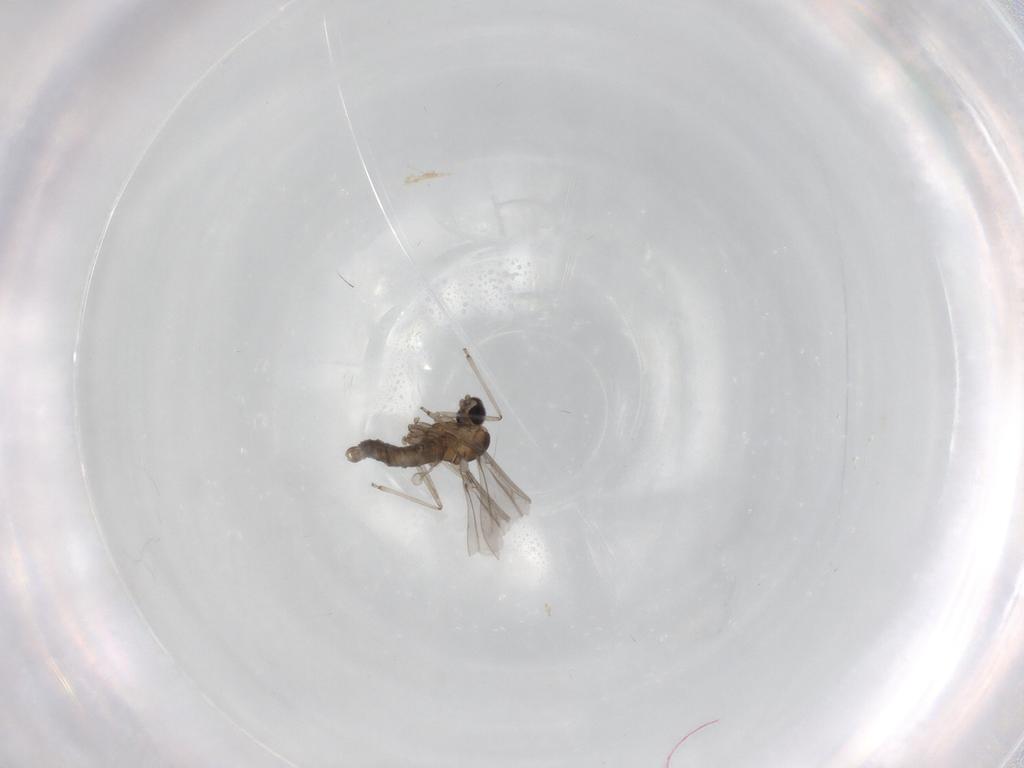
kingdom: Animalia
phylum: Arthropoda
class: Insecta
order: Diptera
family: Cecidomyiidae
